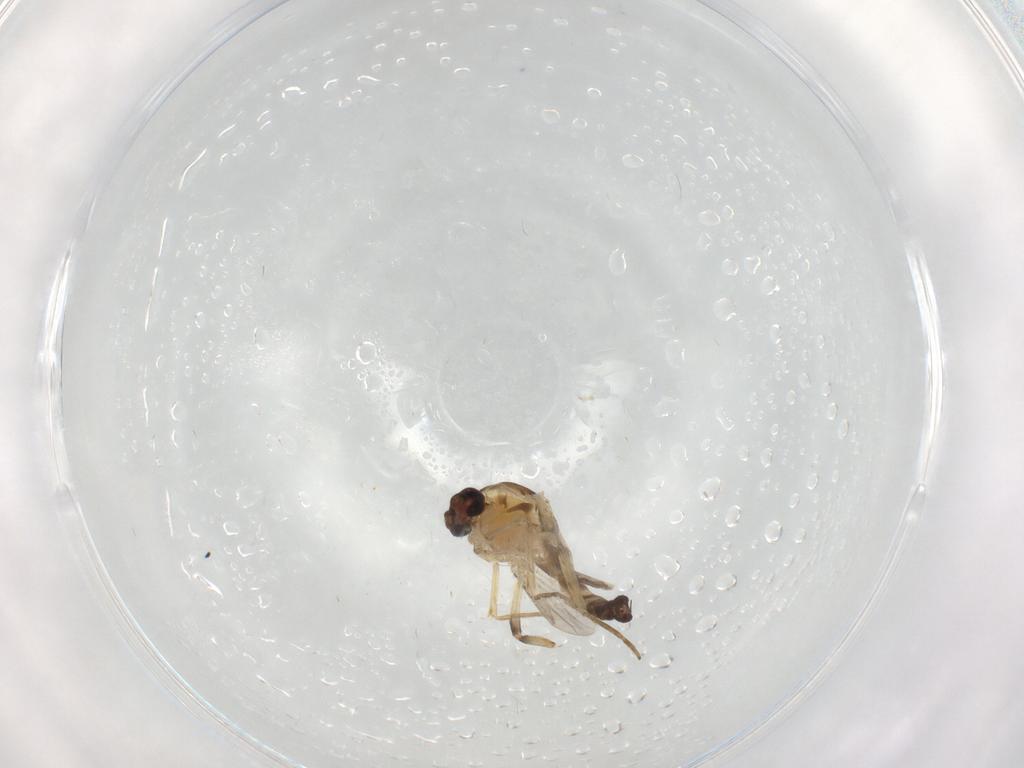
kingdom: Animalia
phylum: Arthropoda
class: Insecta
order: Diptera
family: Ceratopogonidae
